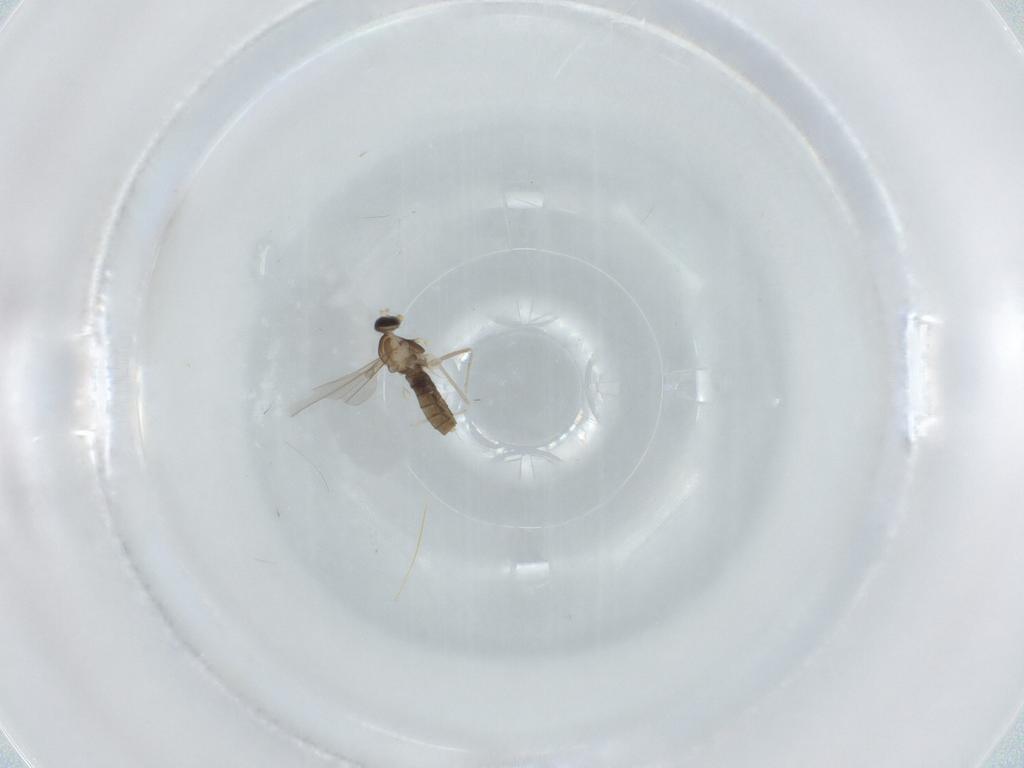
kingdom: Animalia
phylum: Arthropoda
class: Insecta
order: Diptera
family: Cecidomyiidae
